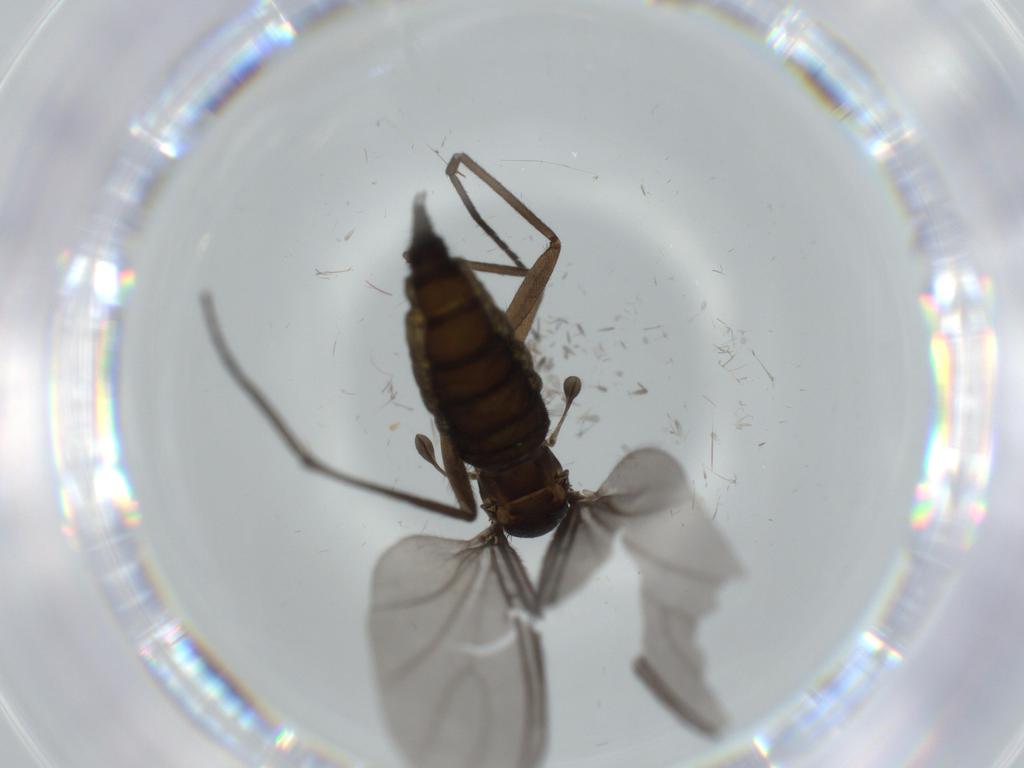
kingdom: Animalia
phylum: Arthropoda
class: Insecta
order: Diptera
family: Sciaridae
